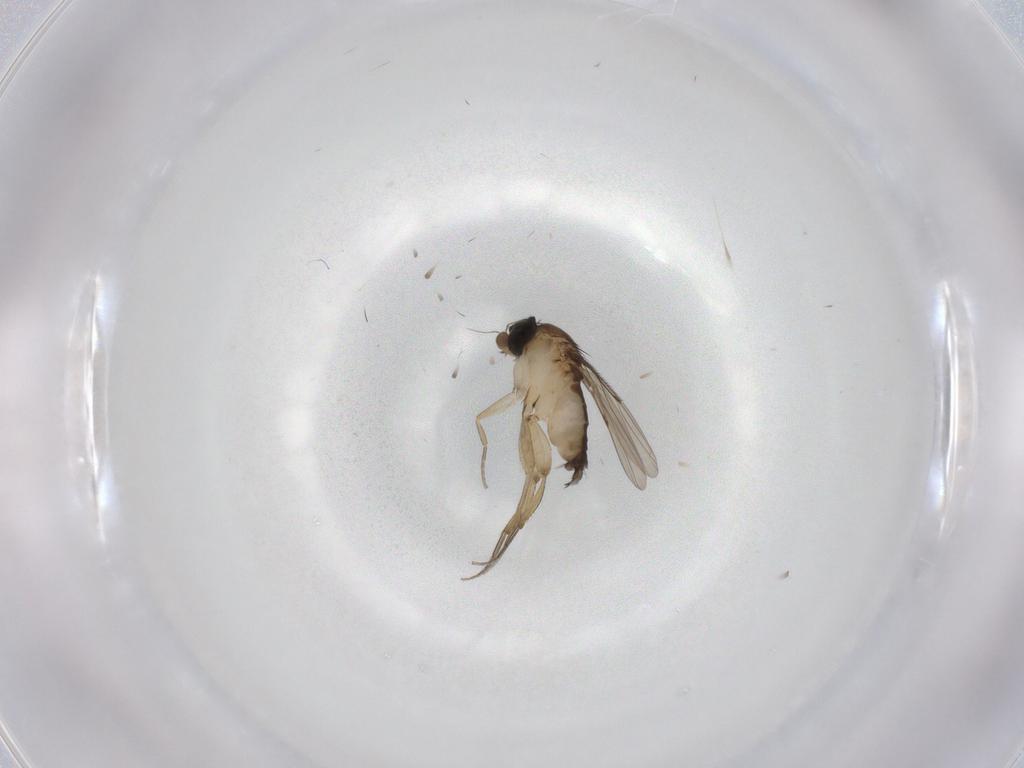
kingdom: Animalia
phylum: Arthropoda
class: Insecta
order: Diptera
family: Phoridae
